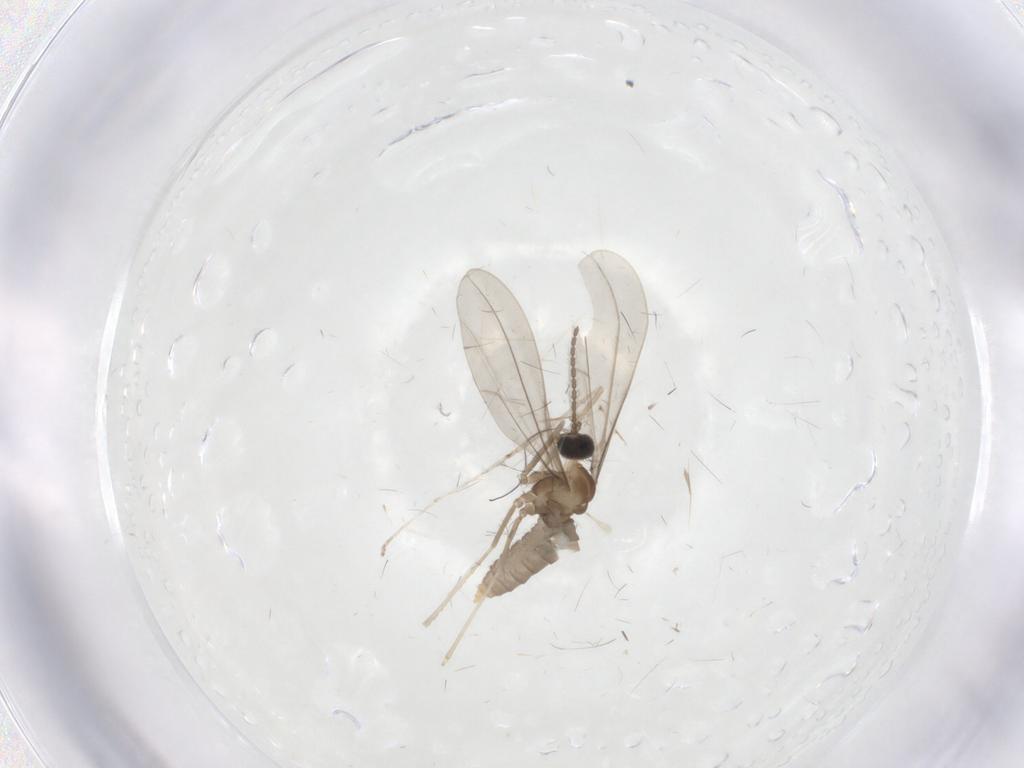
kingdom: Animalia
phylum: Arthropoda
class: Insecta
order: Diptera
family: Cecidomyiidae
